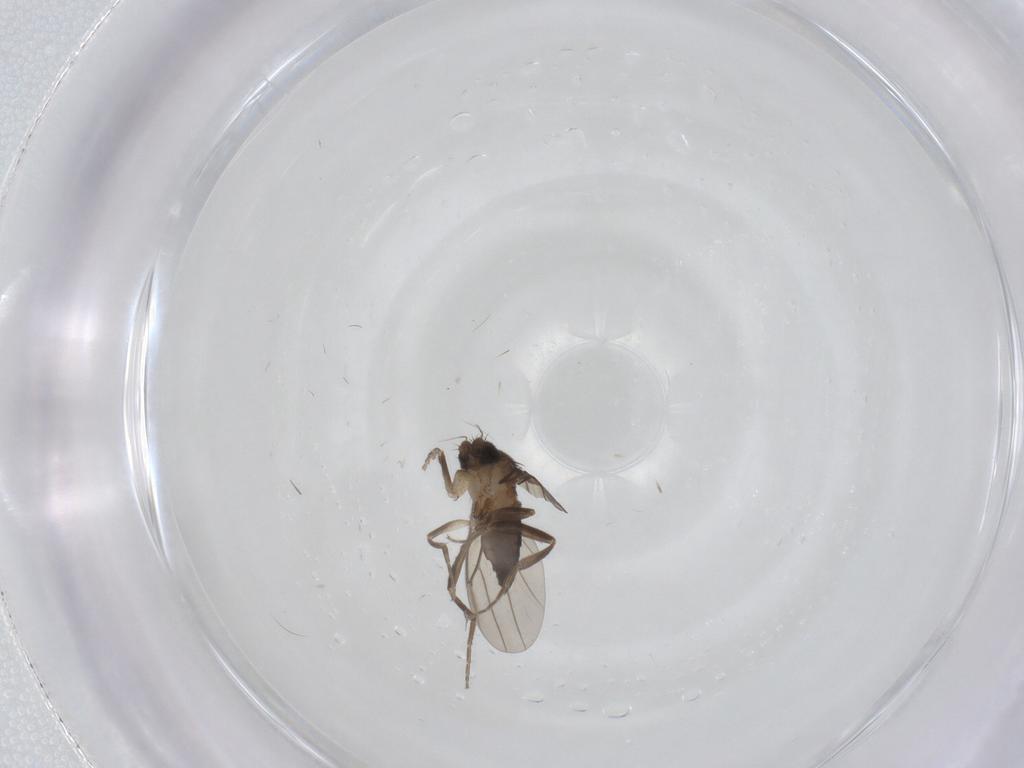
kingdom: Animalia
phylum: Arthropoda
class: Insecta
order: Diptera
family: Phoridae
